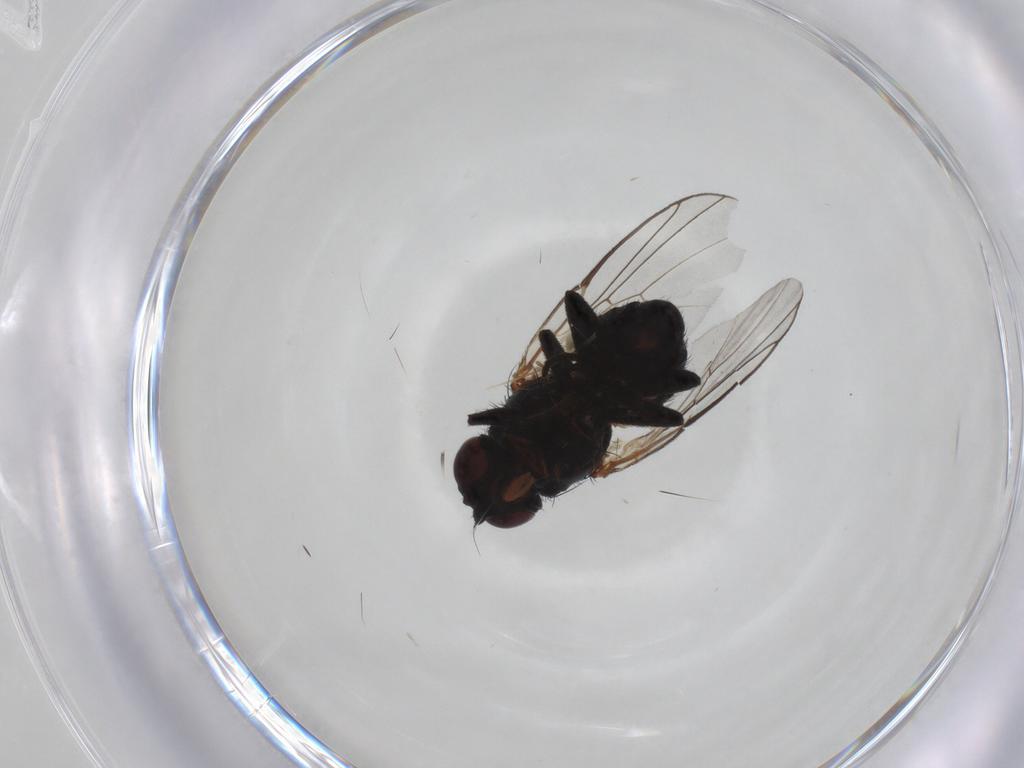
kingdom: Animalia
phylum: Arthropoda
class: Insecta
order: Diptera
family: Agromyzidae
